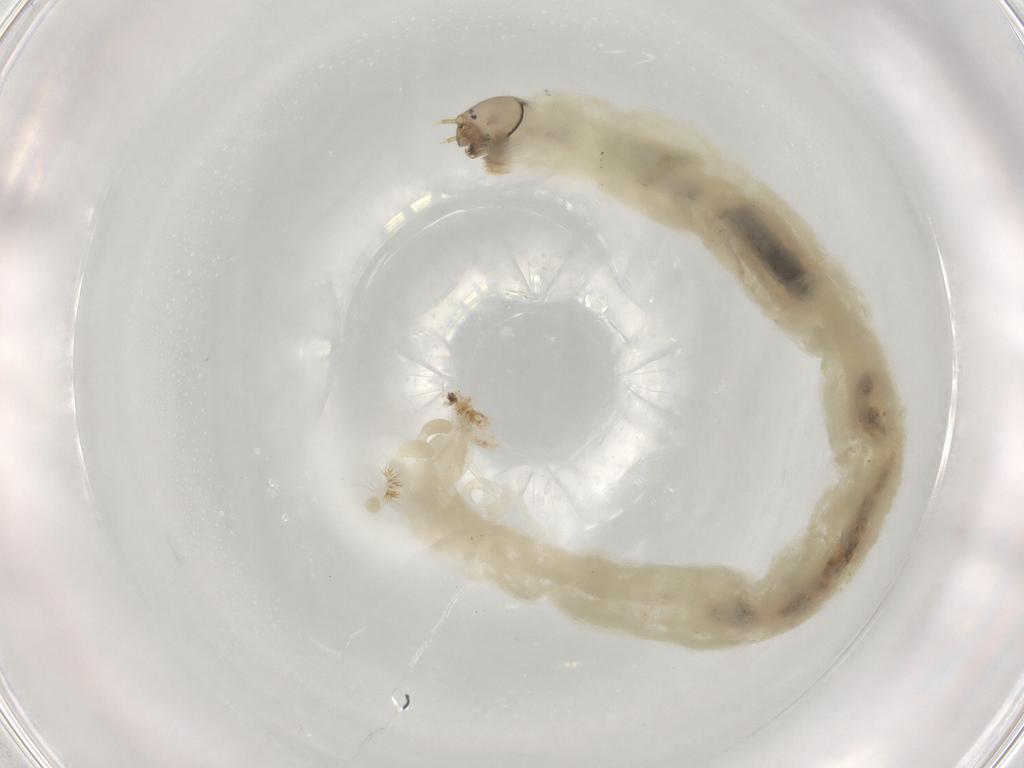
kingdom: Animalia
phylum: Arthropoda
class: Insecta
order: Diptera
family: Chironomidae
